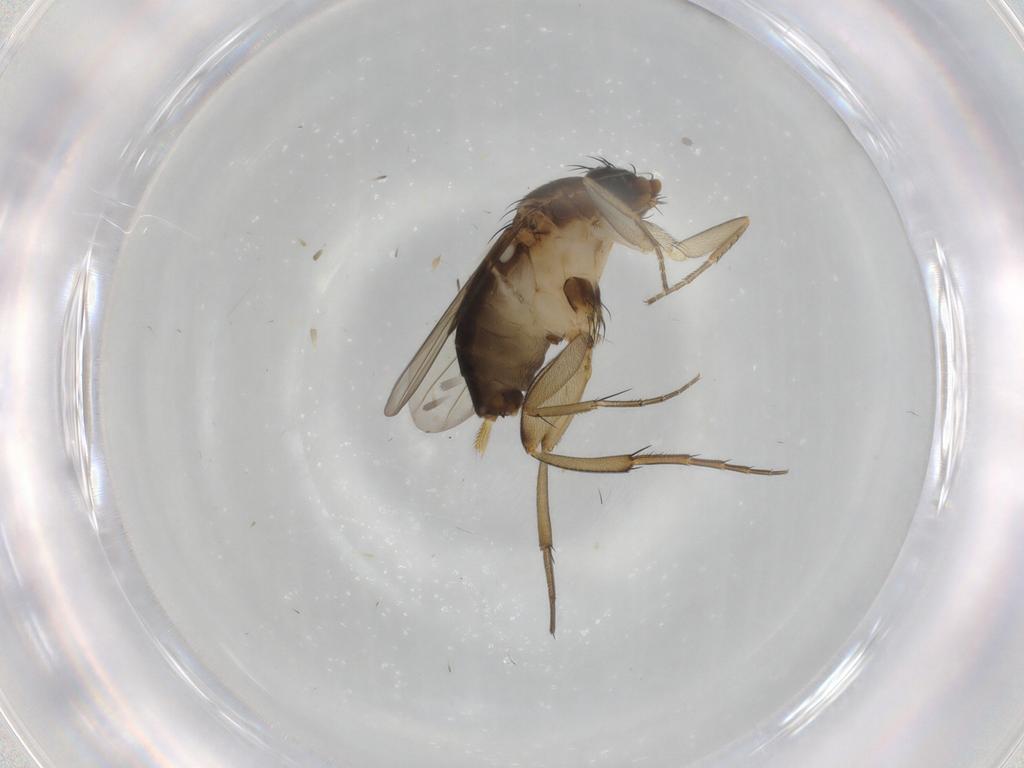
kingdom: Animalia
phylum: Arthropoda
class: Insecta
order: Diptera
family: Phoridae
